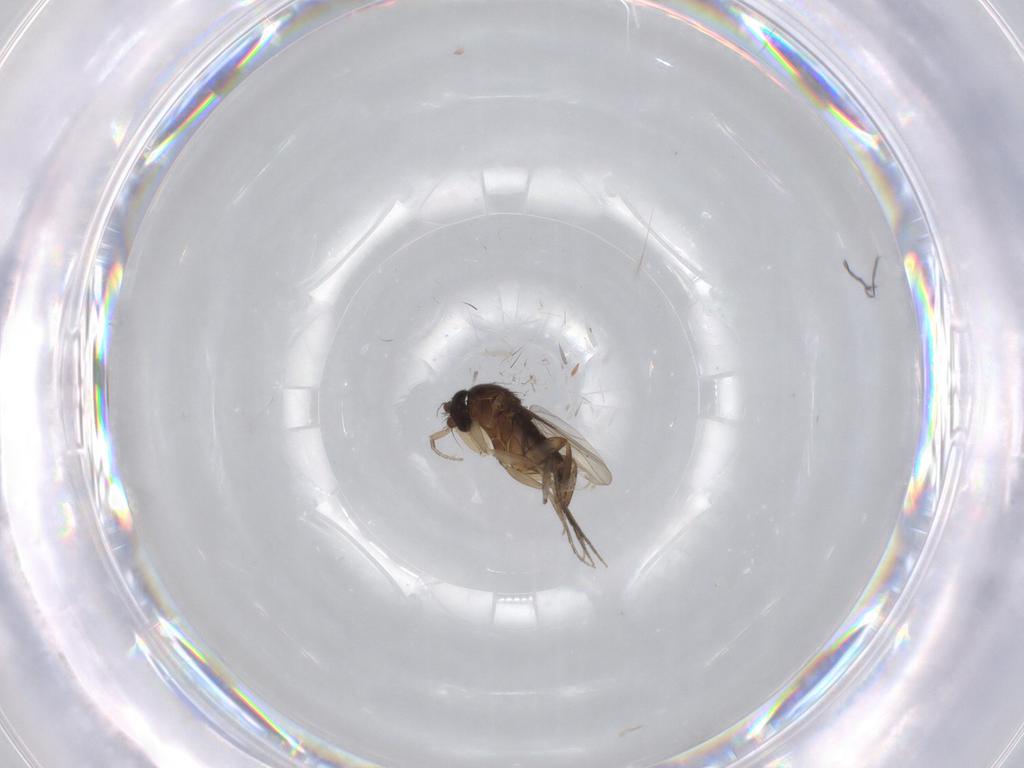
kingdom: Animalia
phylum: Arthropoda
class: Insecta
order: Diptera
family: Sciaridae
